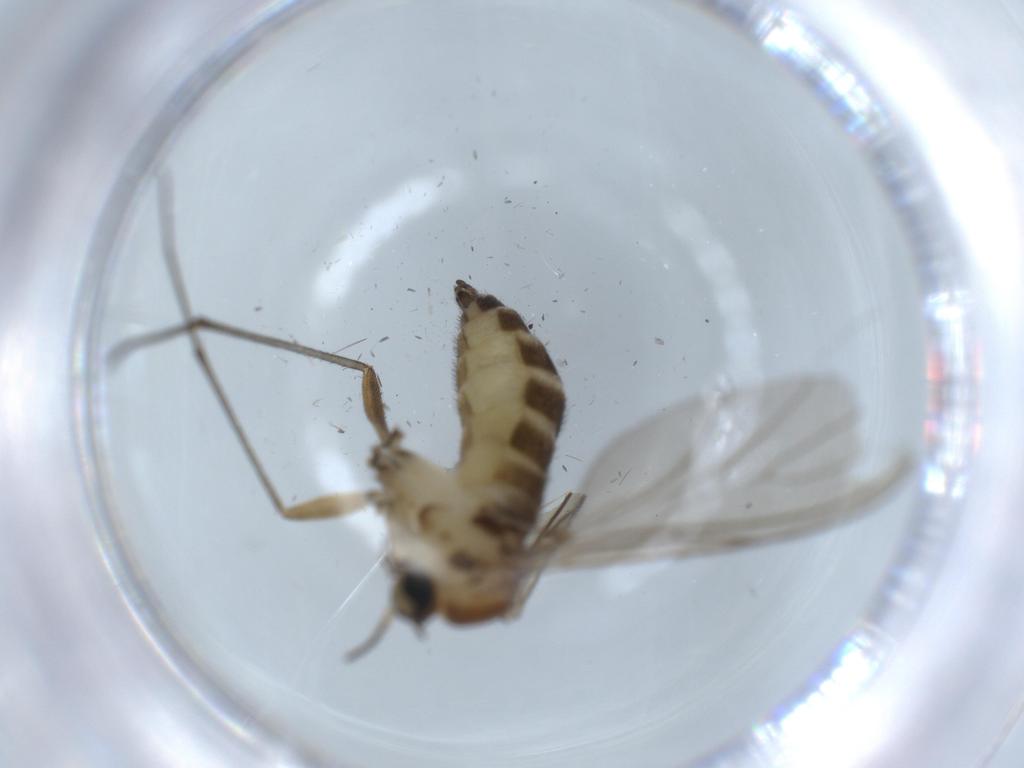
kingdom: Animalia
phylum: Arthropoda
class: Insecta
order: Diptera
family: Sciaridae
